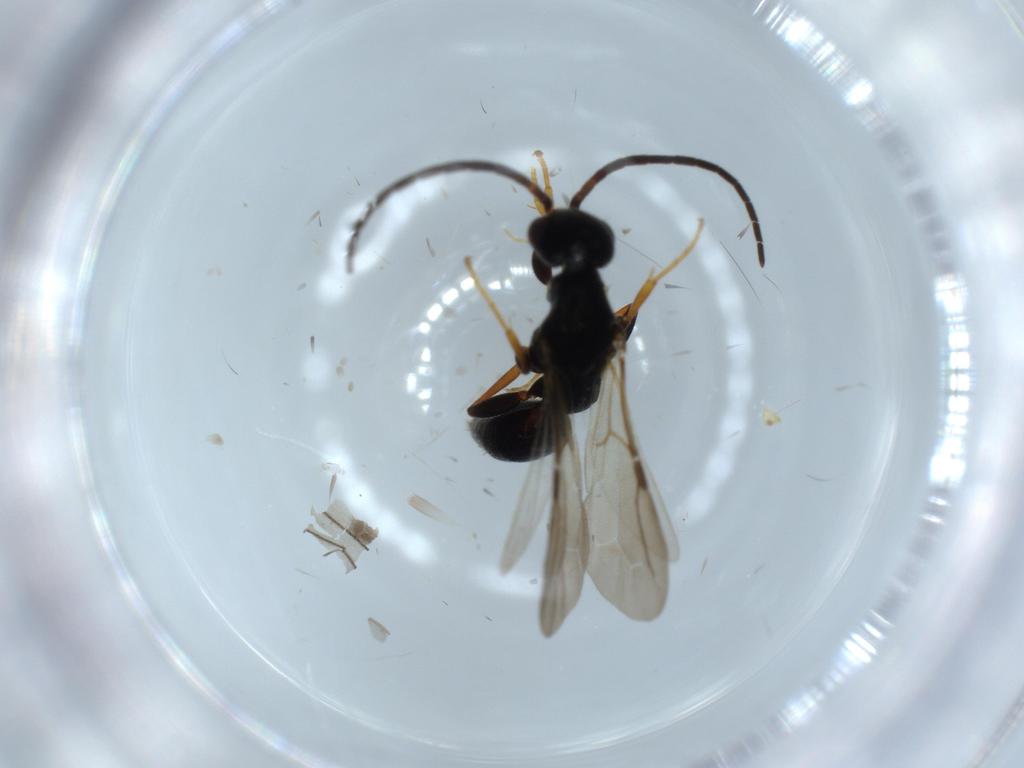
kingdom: Animalia
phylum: Arthropoda
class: Insecta
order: Hymenoptera
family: Bethylidae
